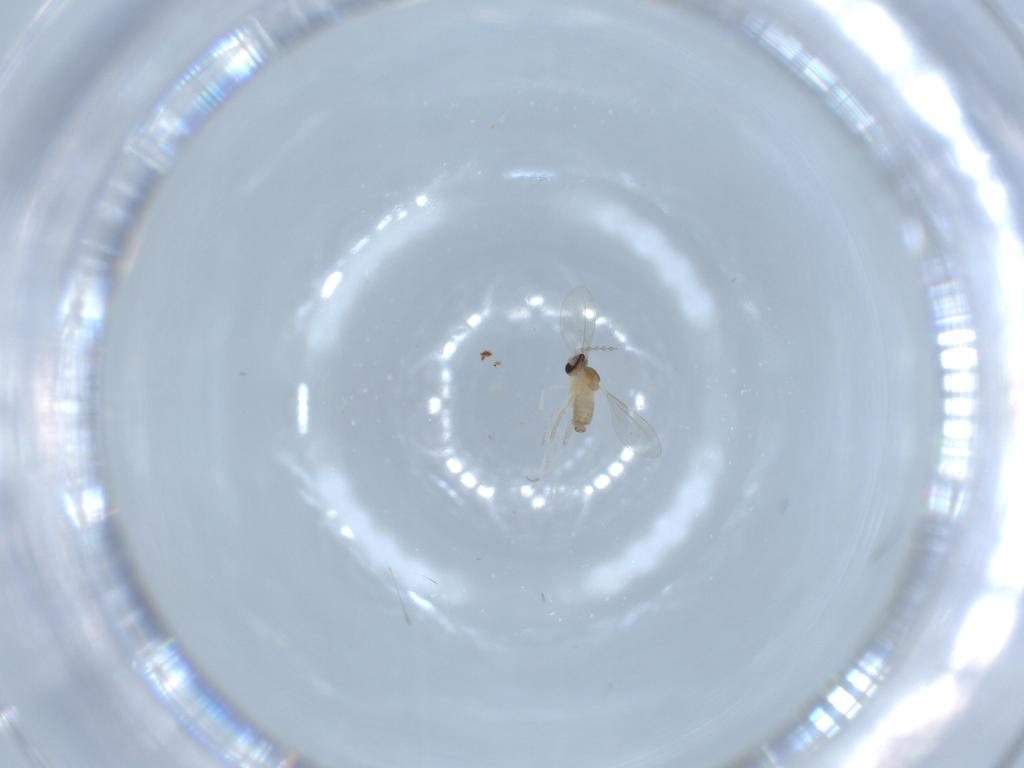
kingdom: Animalia
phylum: Arthropoda
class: Insecta
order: Diptera
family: Cecidomyiidae
